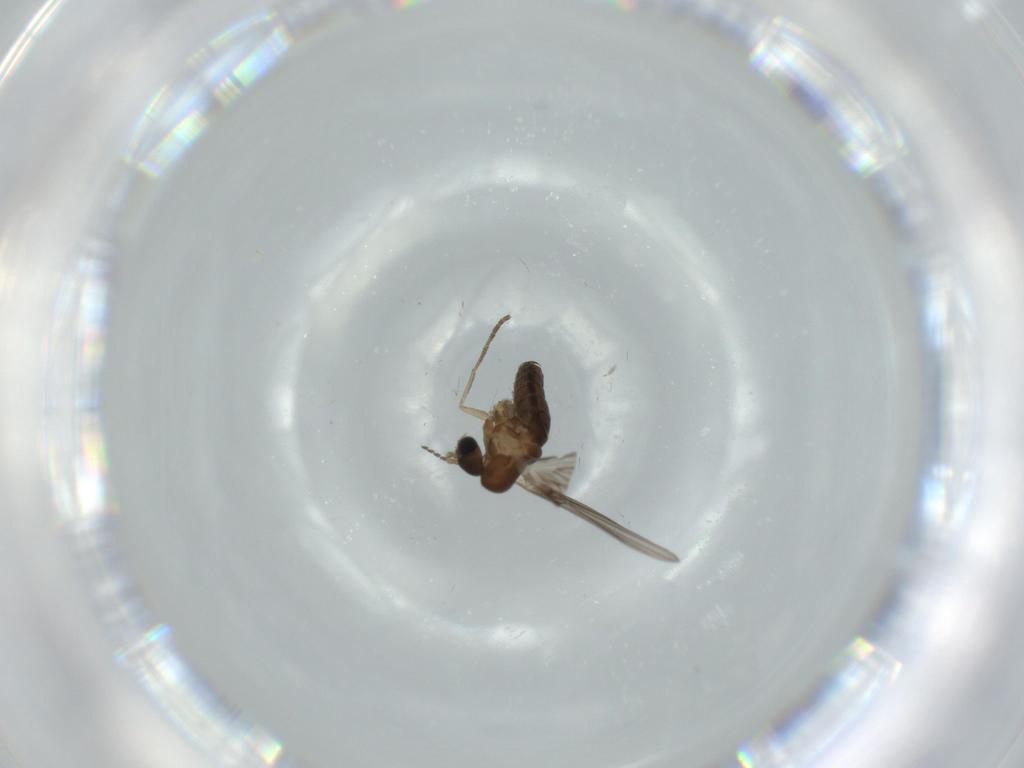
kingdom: Animalia
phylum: Arthropoda
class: Insecta
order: Diptera
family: Psychodidae
